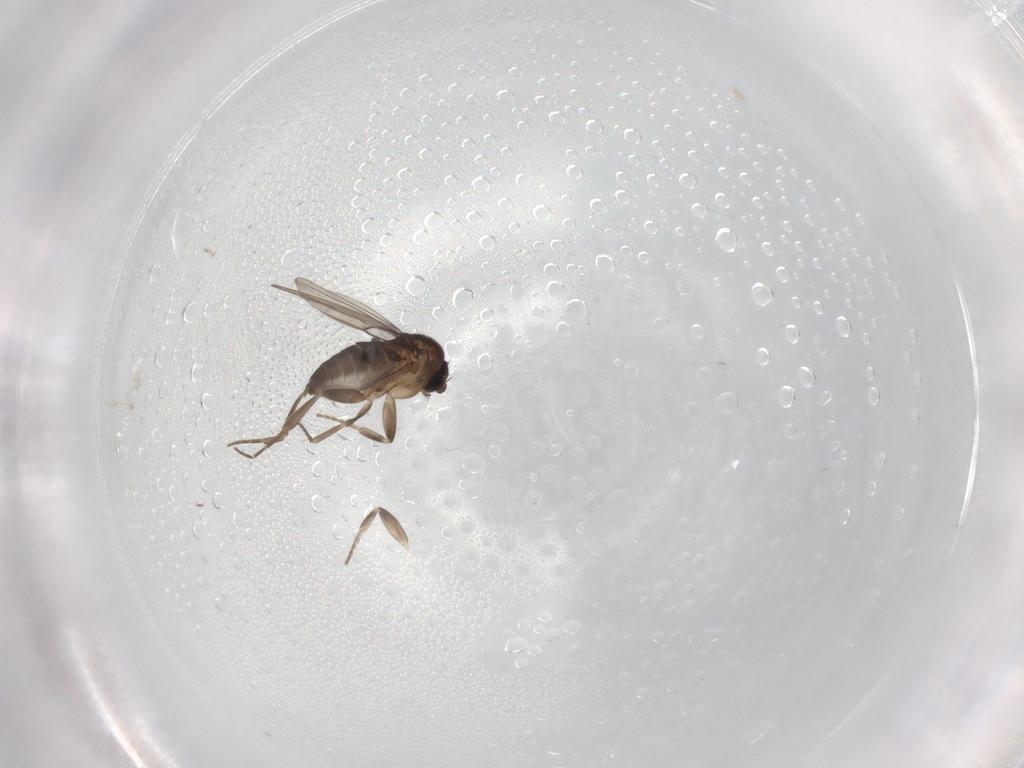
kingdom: Animalia
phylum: Arthropoda
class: Insecta
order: Diptera
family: Phoridae
